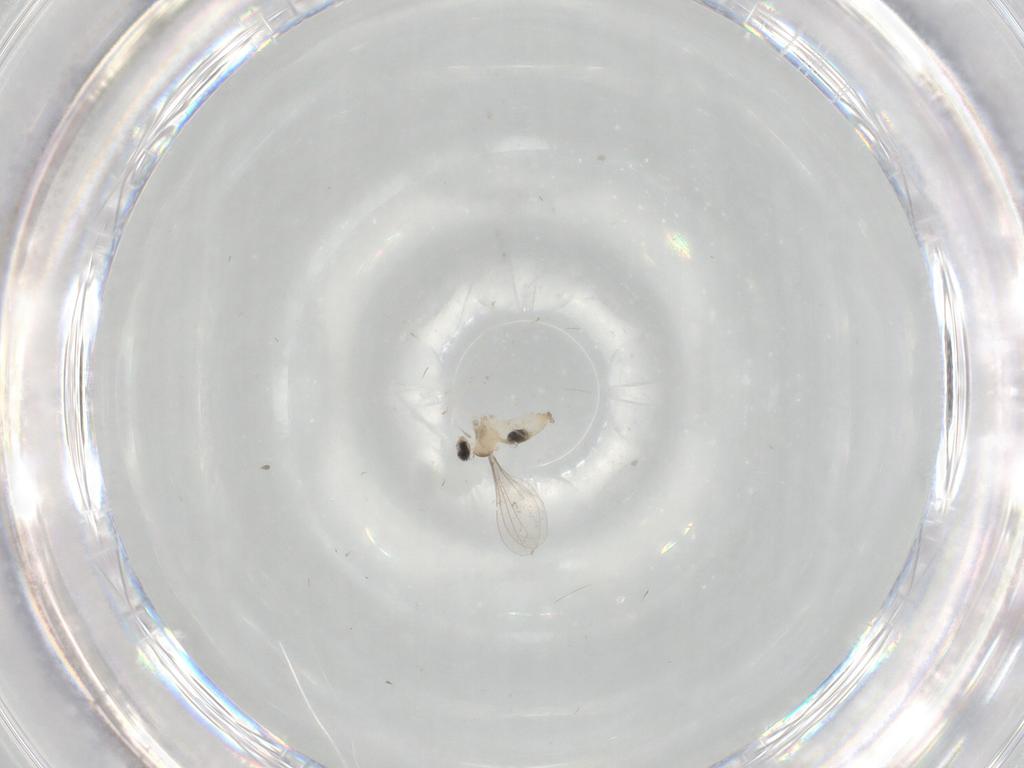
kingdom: Animalia
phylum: Arthropoda
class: Insecta
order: Diptera
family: Cecidomyiidae
